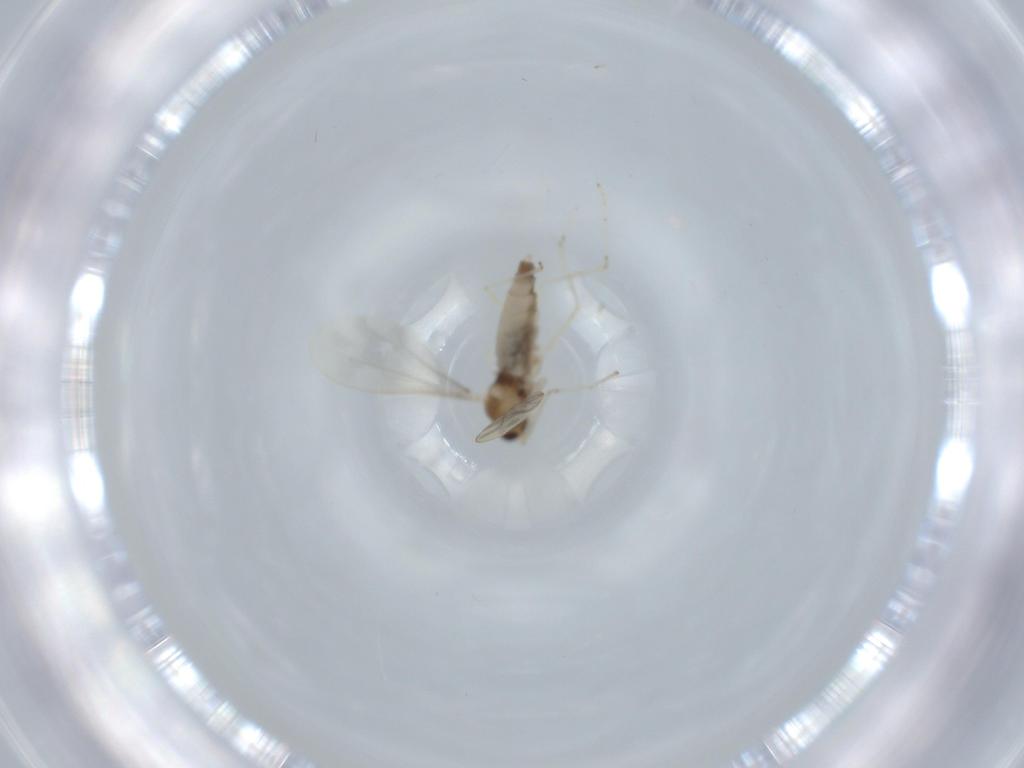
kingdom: Animalia
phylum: Arthropoda
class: Insecta
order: Diptera
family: Cecidomyiidae
